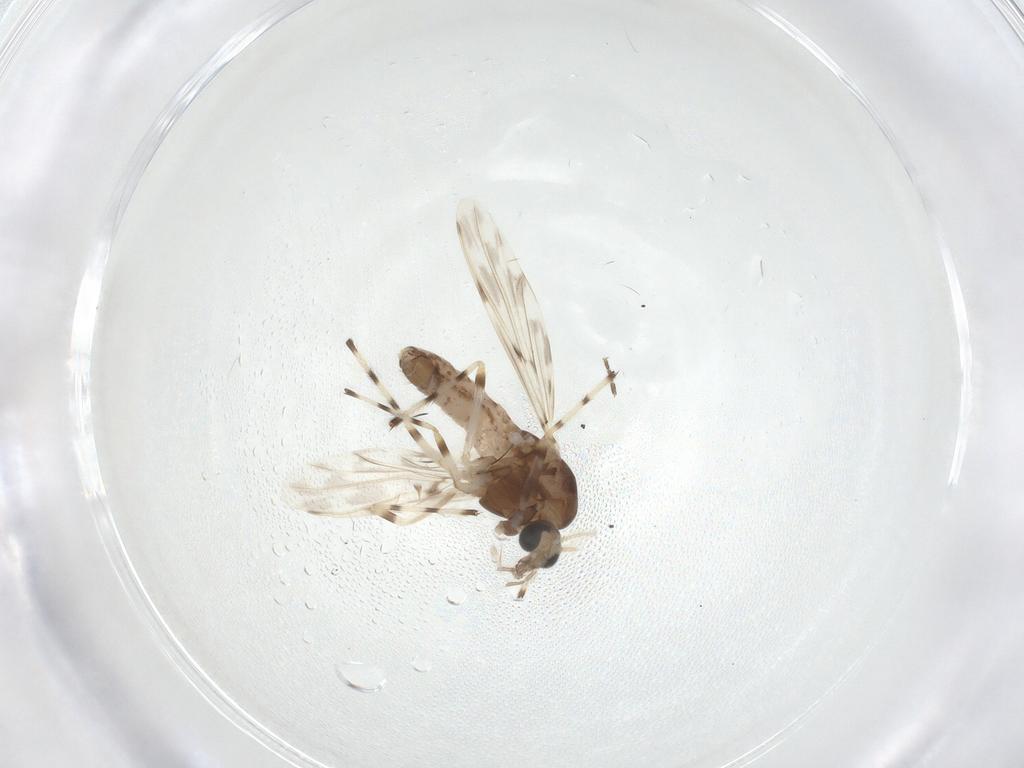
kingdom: Animalia
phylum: Arthropoda
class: Insecta
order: Diptera
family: Chironomidae
